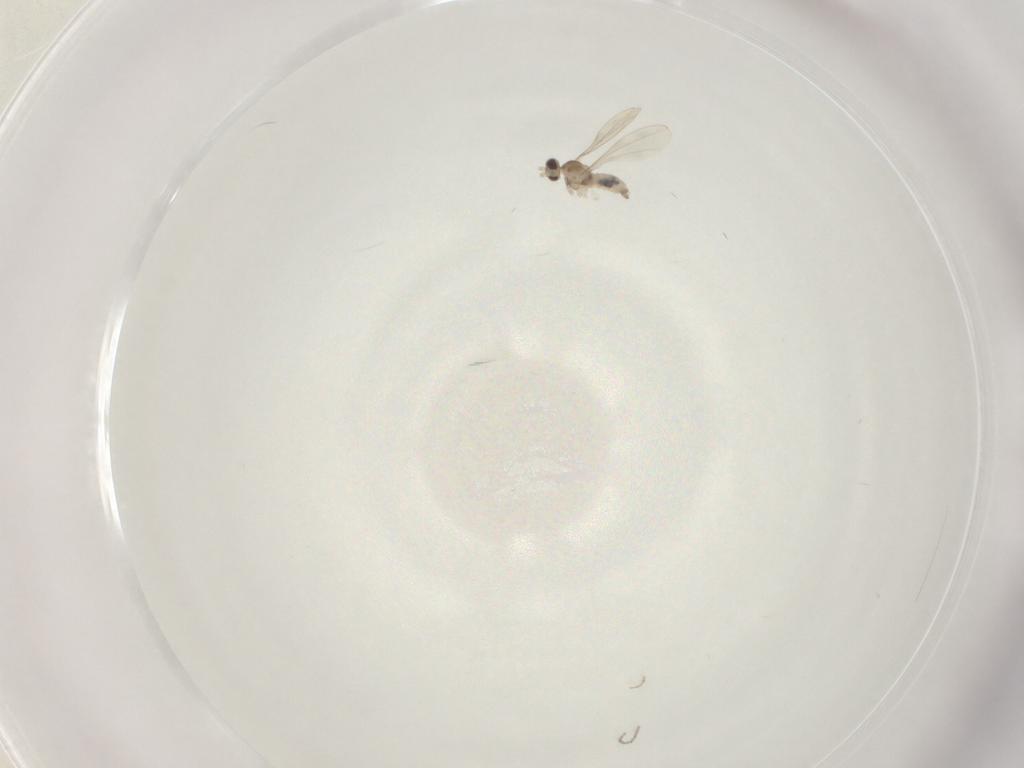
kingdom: Animalia
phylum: Arthropoda
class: Insecta
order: Diptera
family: Cecidomyiidae
